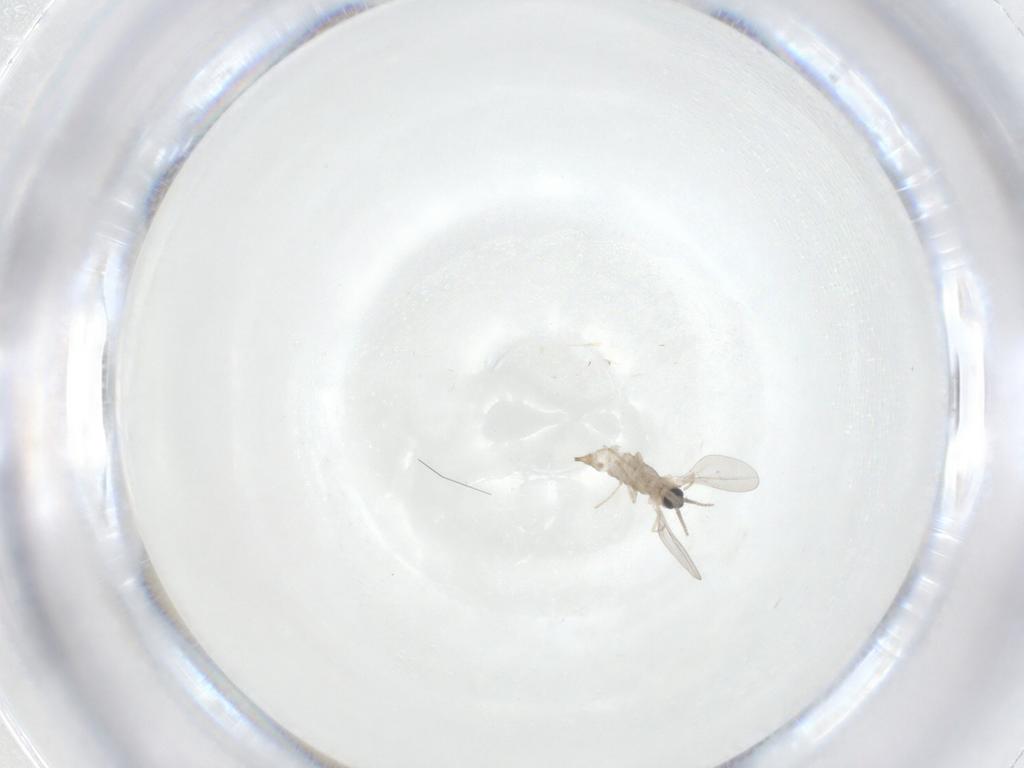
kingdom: Animalia
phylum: Arthropoda
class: Insecta
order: Diptera
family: Cecidomyiidae
